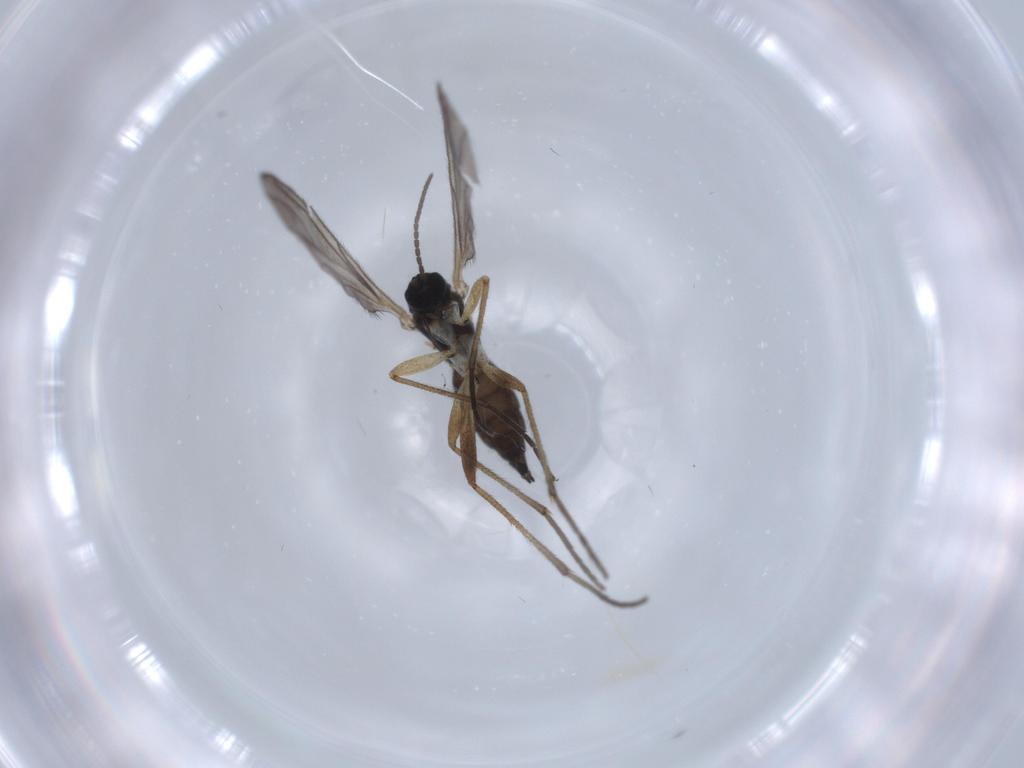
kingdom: Animalia
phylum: Arthropoda
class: Insecta
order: Diptera
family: Sciaridae
